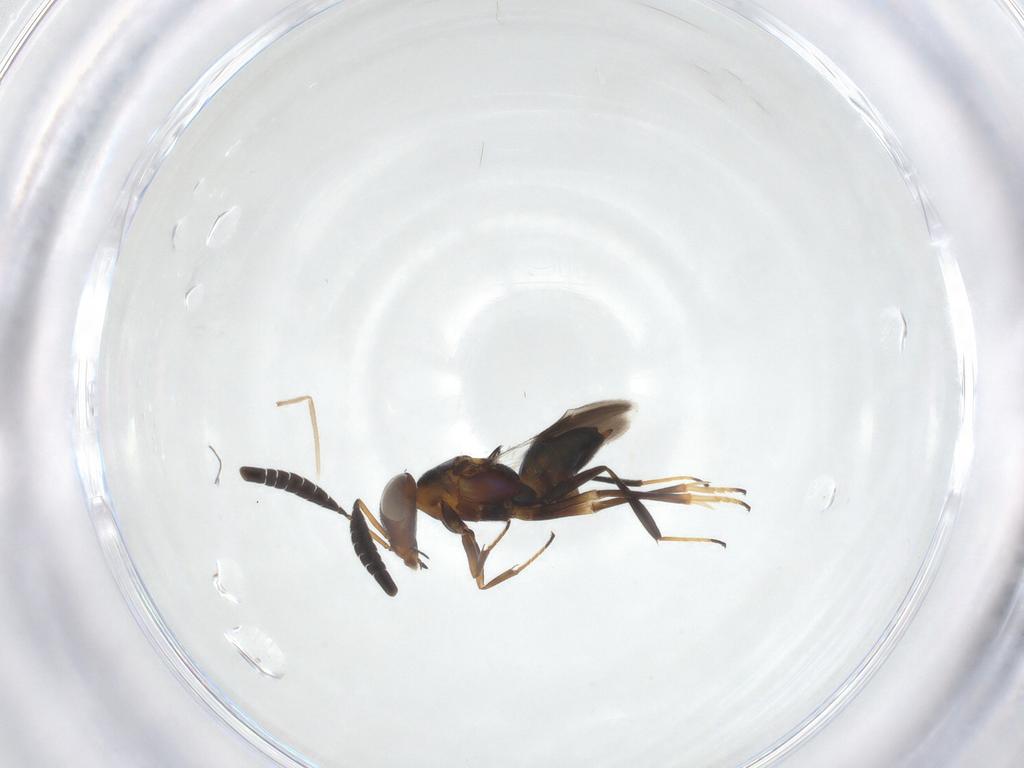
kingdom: Animalia
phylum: Arthropoda
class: Insecta
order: Hymenoptera
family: Encyrtidae
